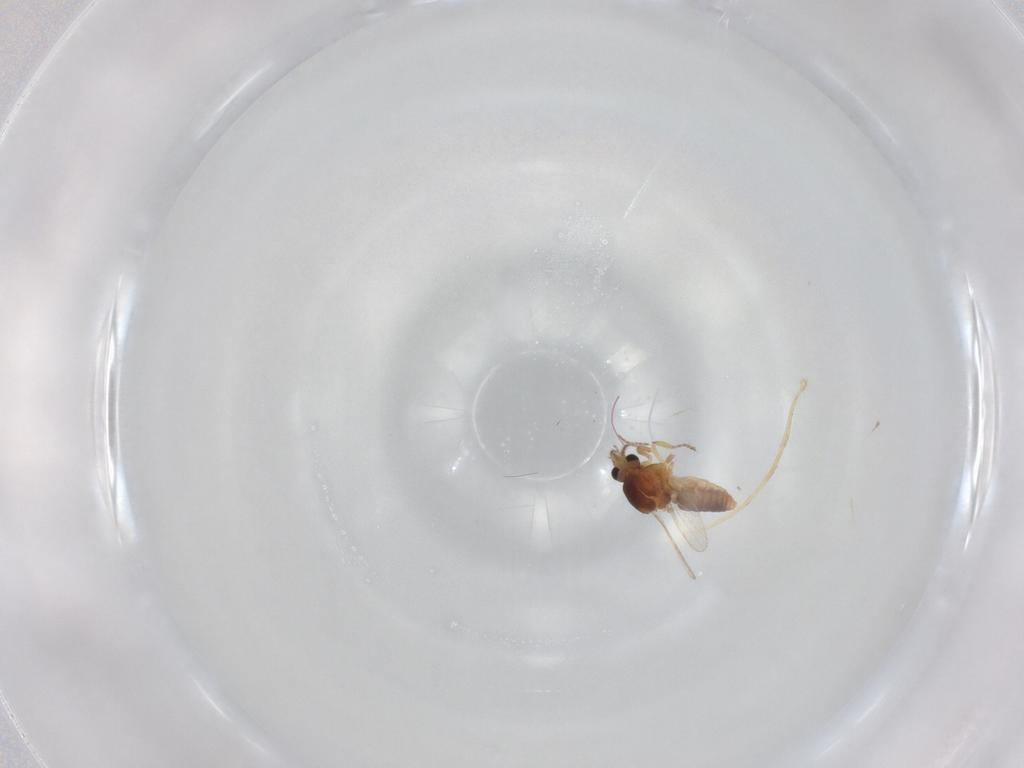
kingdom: Animalia
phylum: Arthropoda
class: Insecta
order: Diptera
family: Ceratopogonidae
